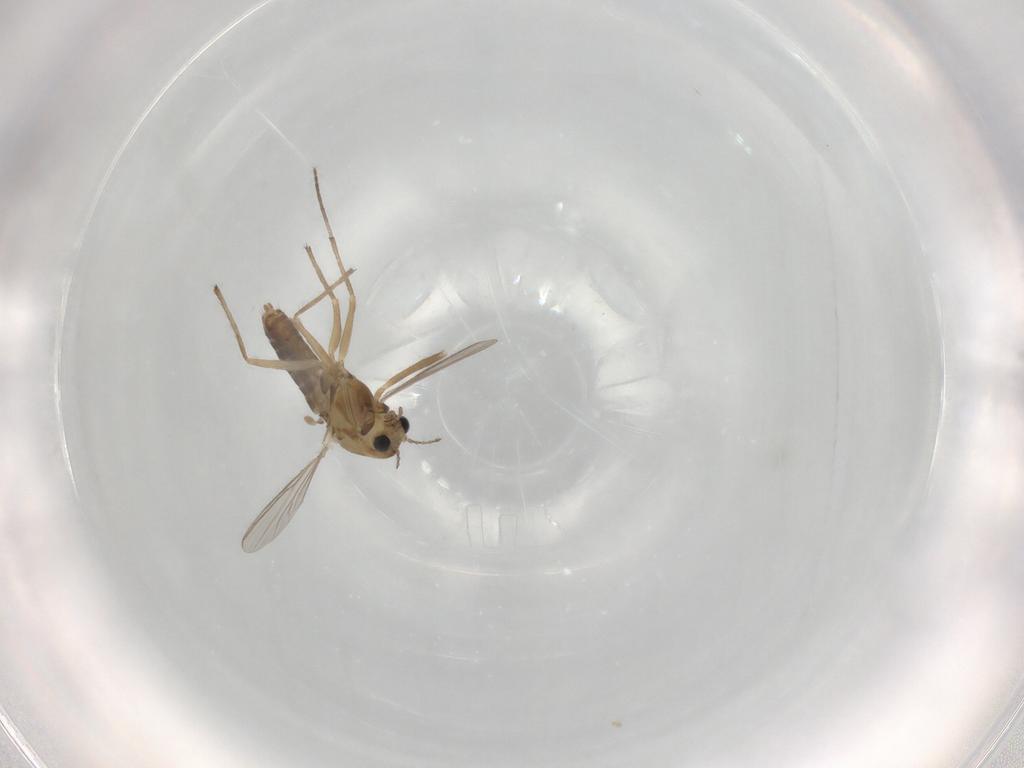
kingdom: Animalia
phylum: Arthropoda
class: Insecta
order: Diptera
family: Chironomidae
